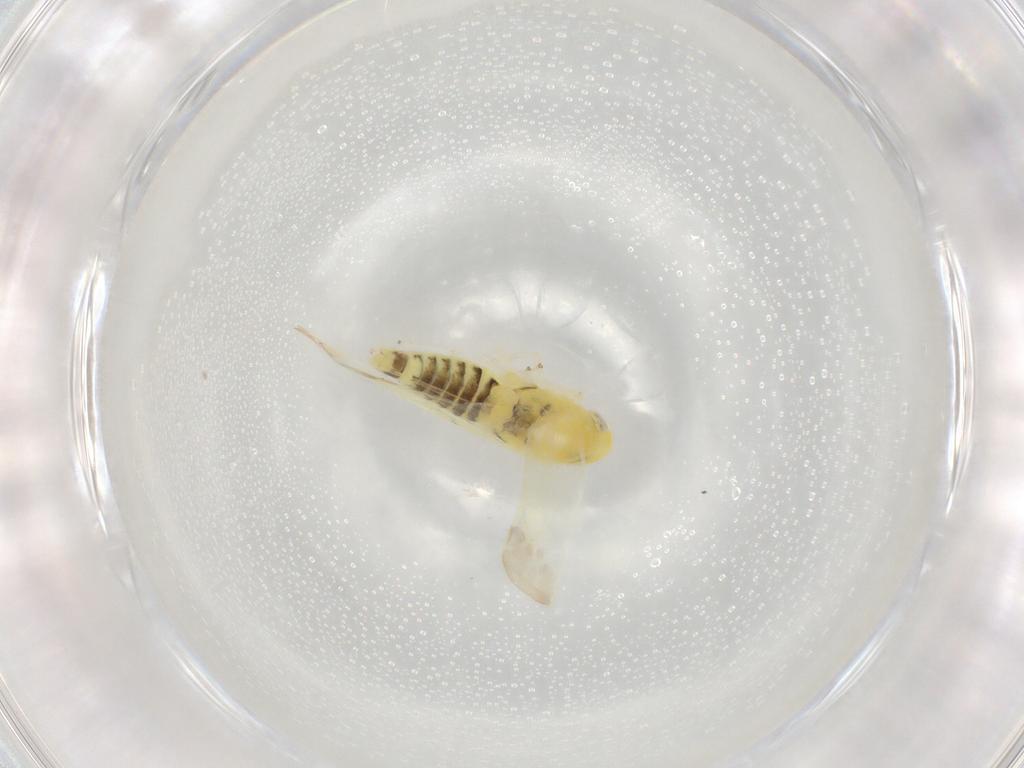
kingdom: Animalia
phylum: Arthropoda
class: Insecta
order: Hemiptera
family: Cicadellidae
